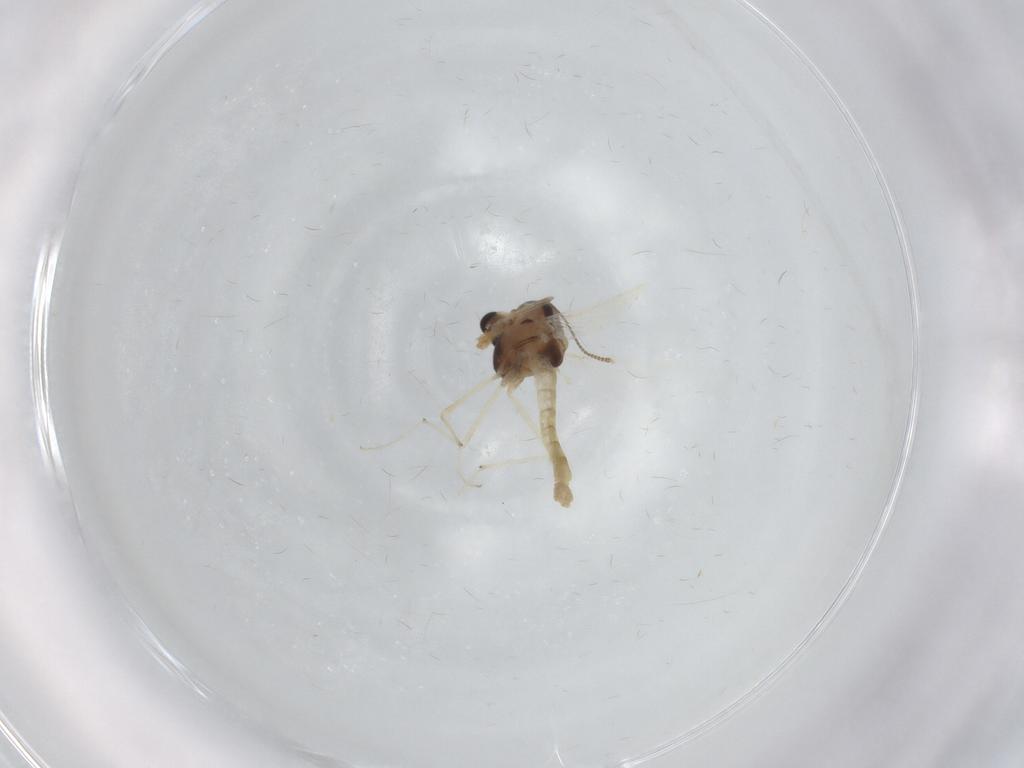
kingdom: Animalia
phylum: Arthropoda
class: Insecta
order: Diptera
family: Chironomidae
